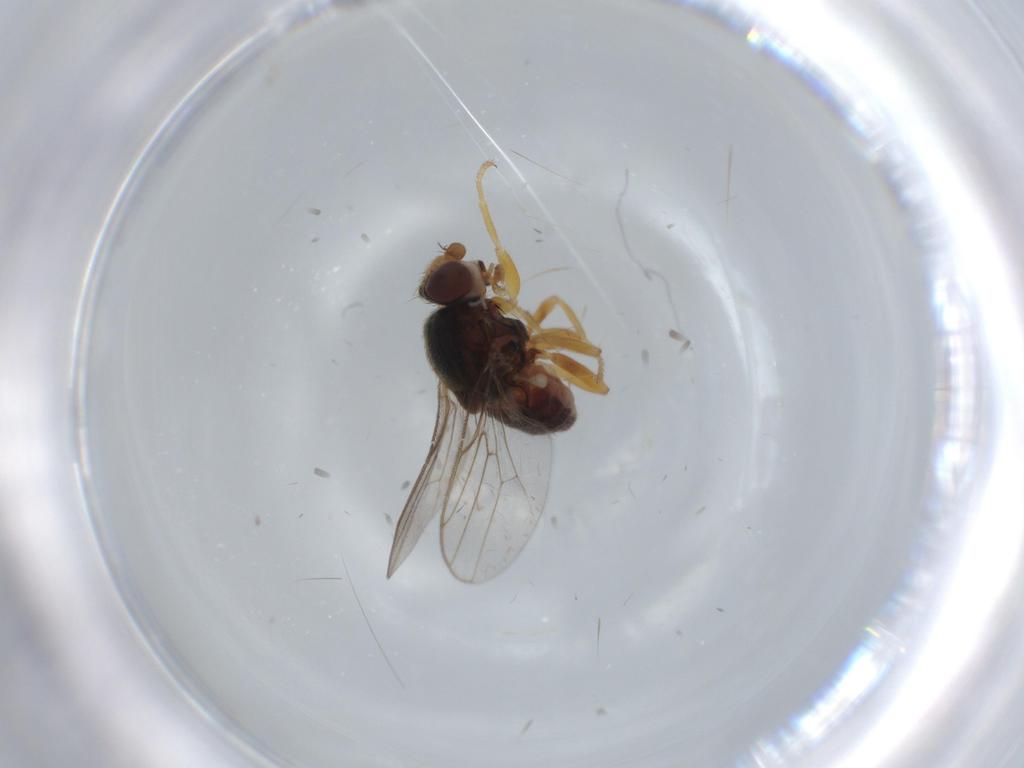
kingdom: Animalia
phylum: Arthropoda
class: Insecta
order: Diptera
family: Chloropidae
